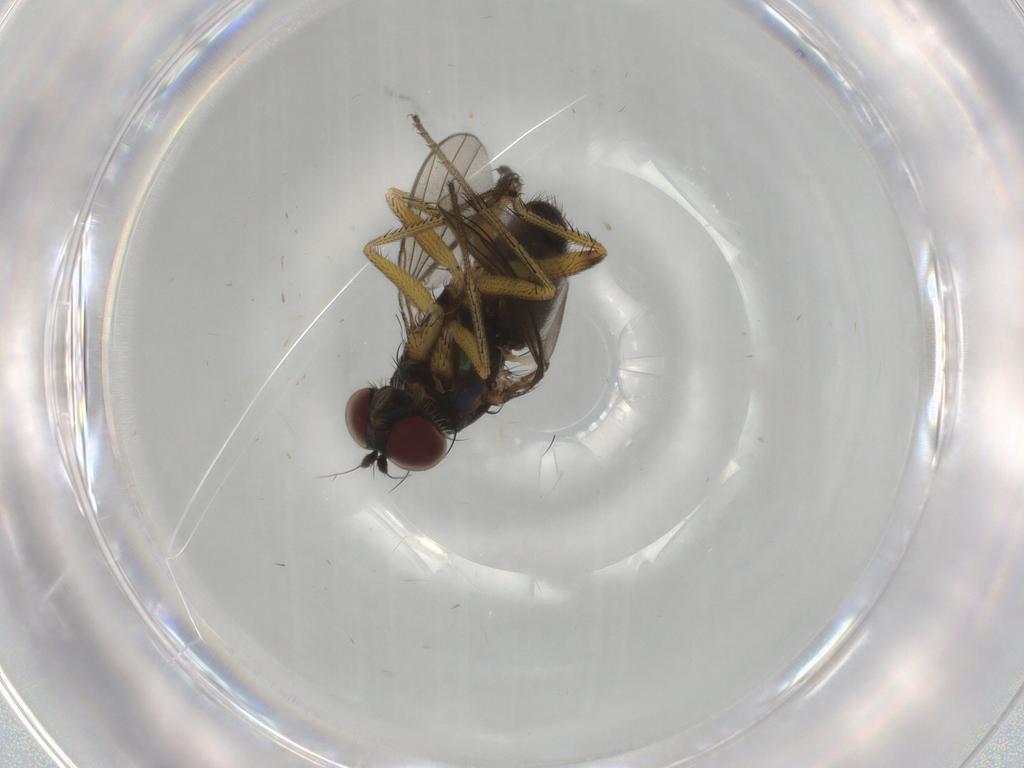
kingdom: Animalia
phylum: Arthropoda
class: Insecta
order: Diptera
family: Dolichopodidae
